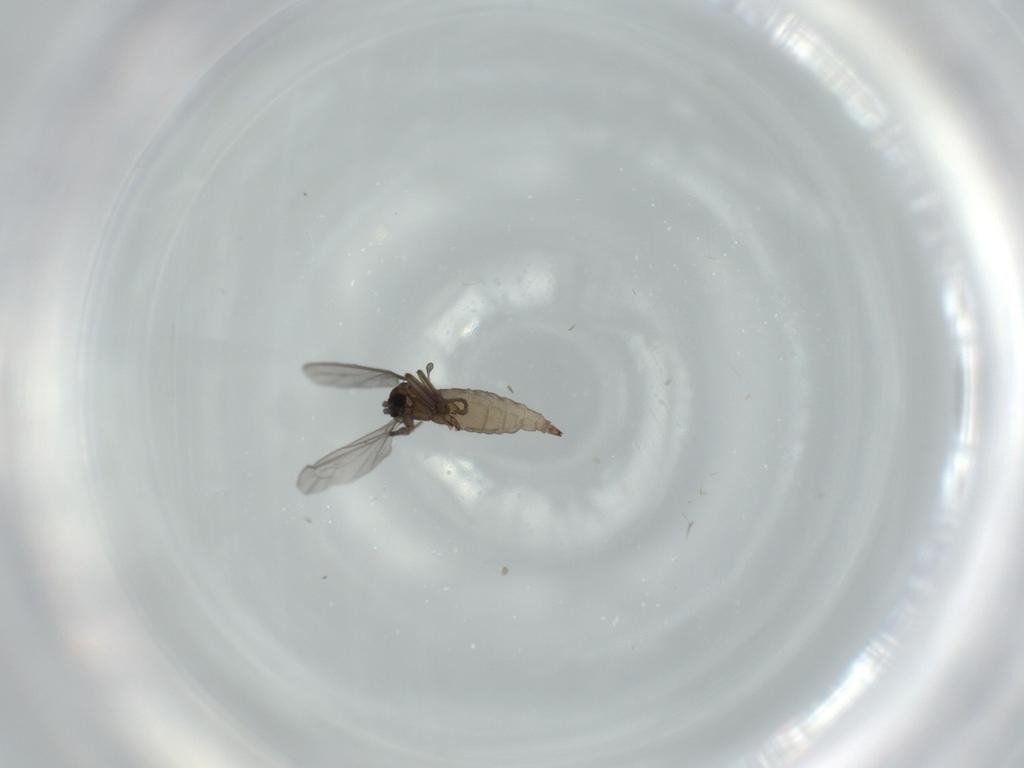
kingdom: Animalia
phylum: Arthropoda
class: Insecta
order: Diptera
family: Sciaridae
